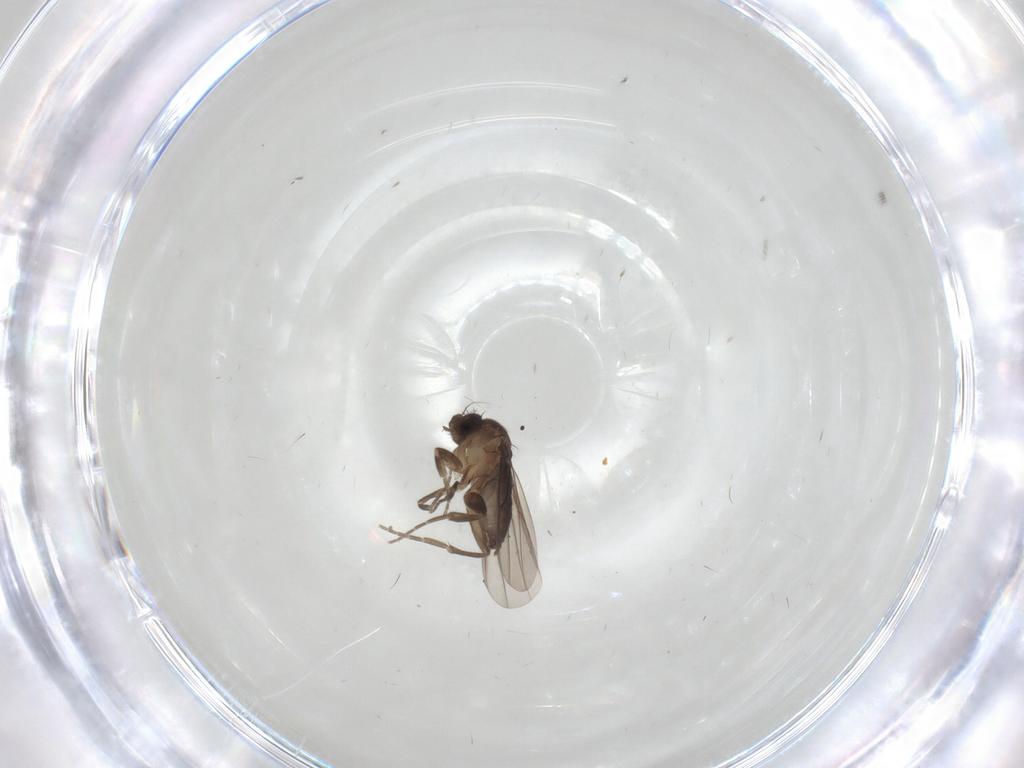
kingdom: Animalia
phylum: Arthropoda
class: Insecta
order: Diptera
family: Phoridae
